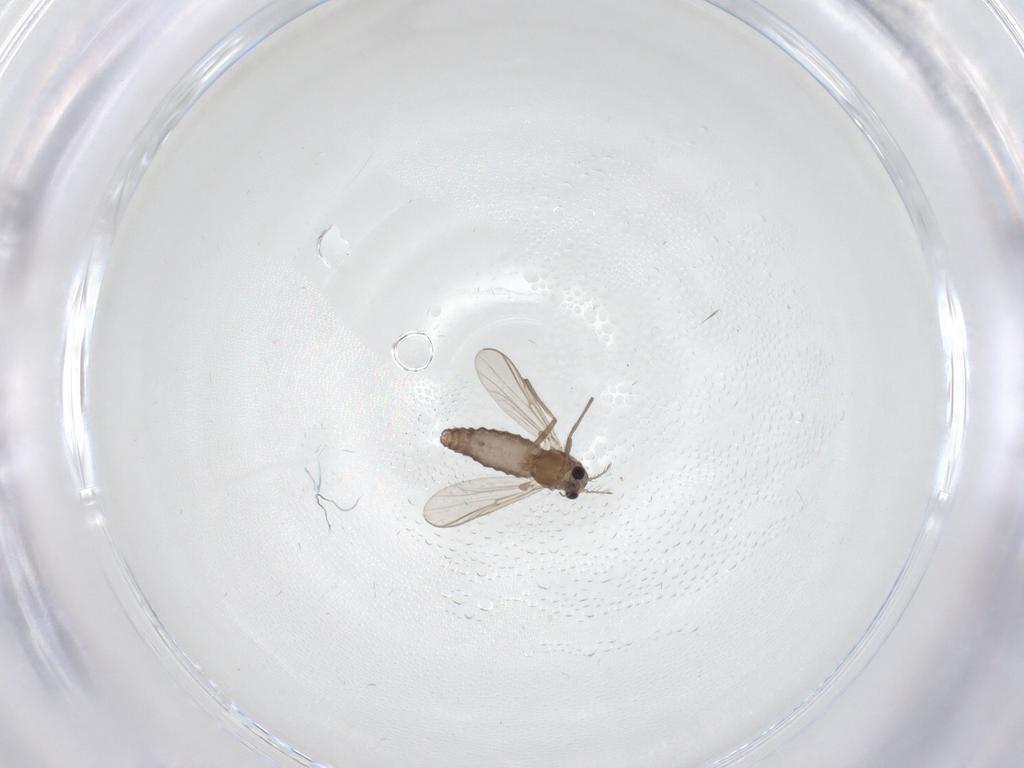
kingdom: Animalia
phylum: Arthropoda
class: Insecta
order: Diptera
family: Chironomidae
